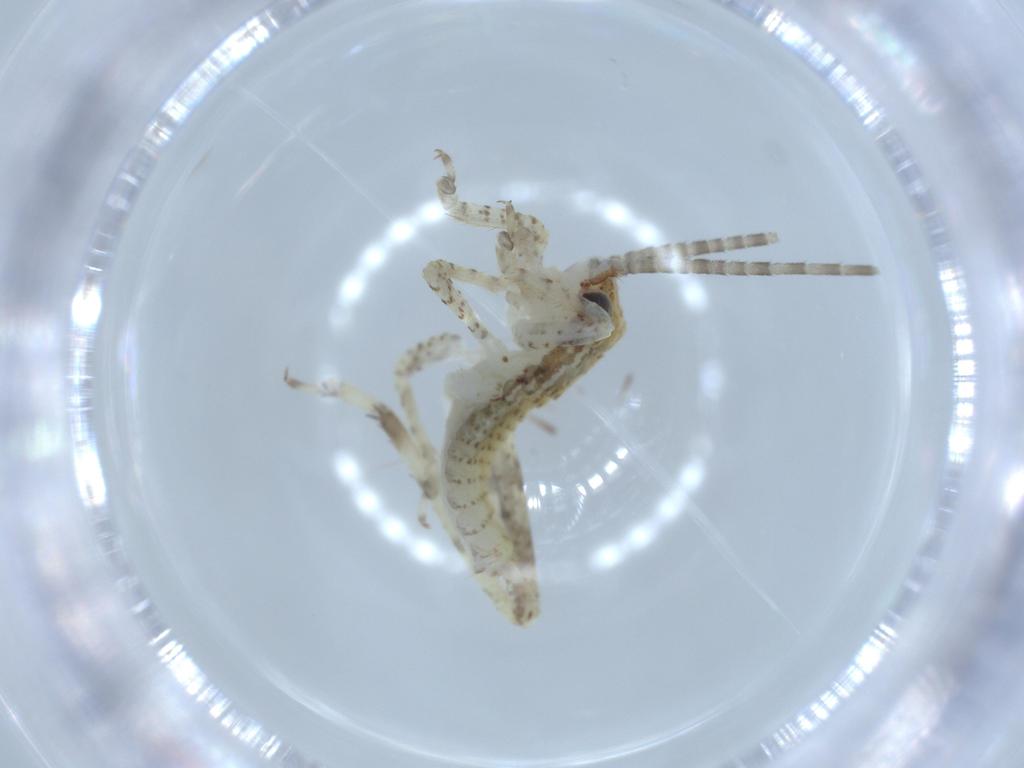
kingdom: Animalia
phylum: Arthropoda
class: Insecta
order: Orthoptera
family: Gryllidae
